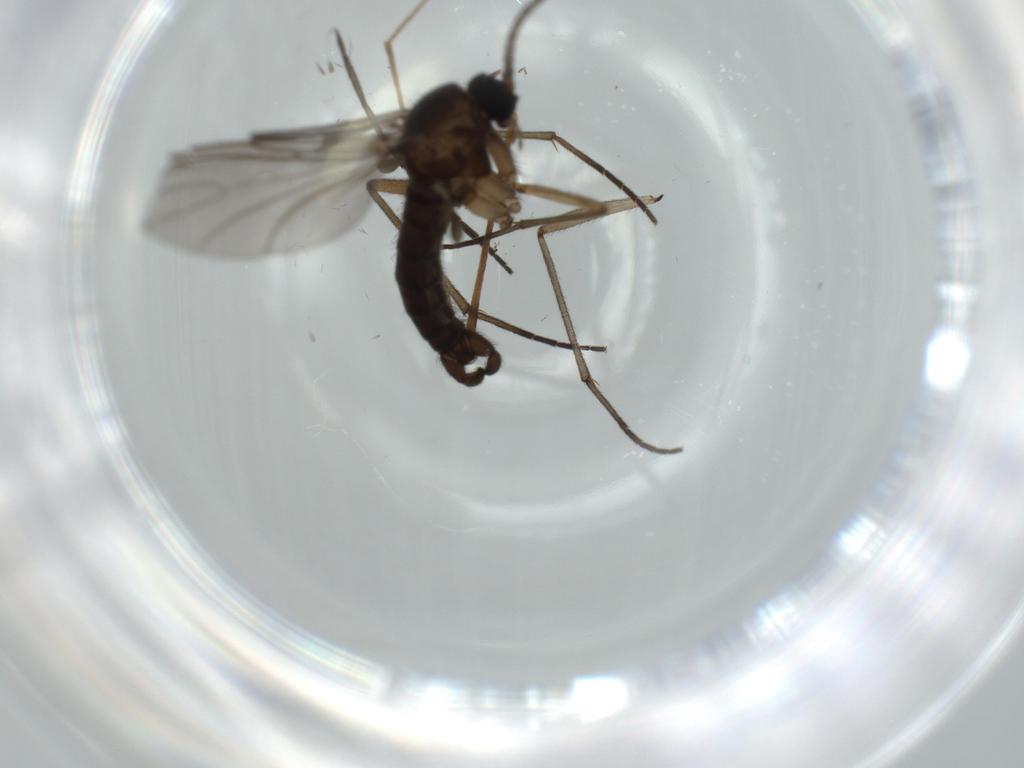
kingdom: Animalia
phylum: Arthropoda
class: Insecta
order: Diptera
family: Sciaridae
